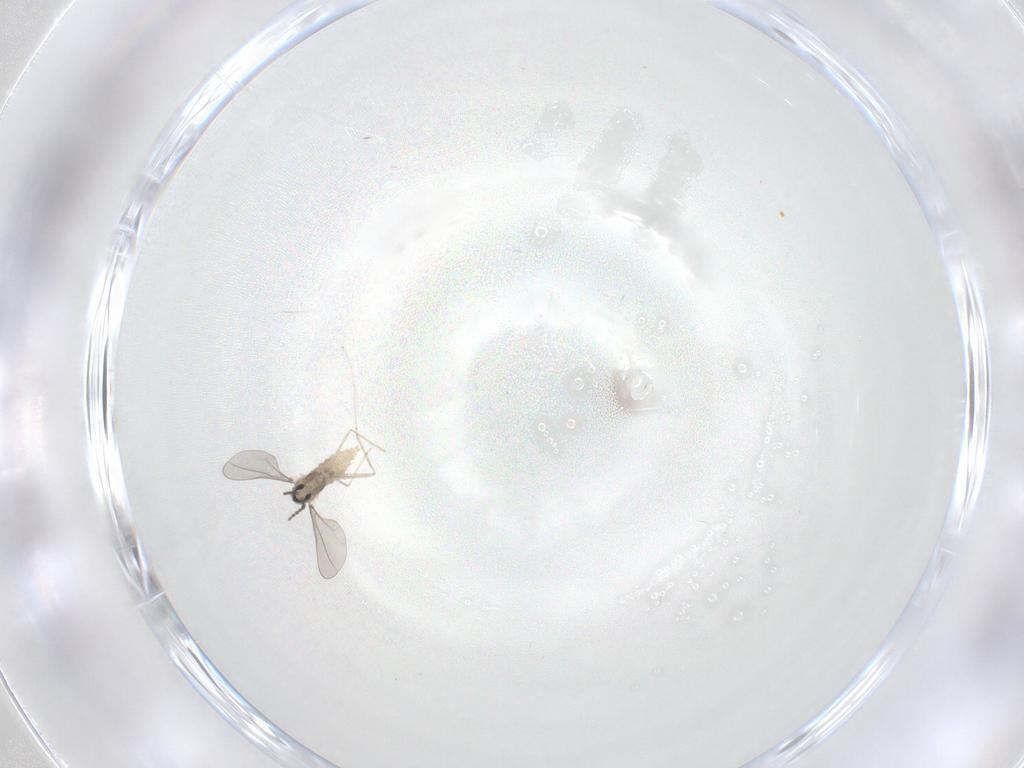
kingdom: Animalia
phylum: Arthropoda
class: Insecta
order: Diptera
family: Cecidomyiidae
